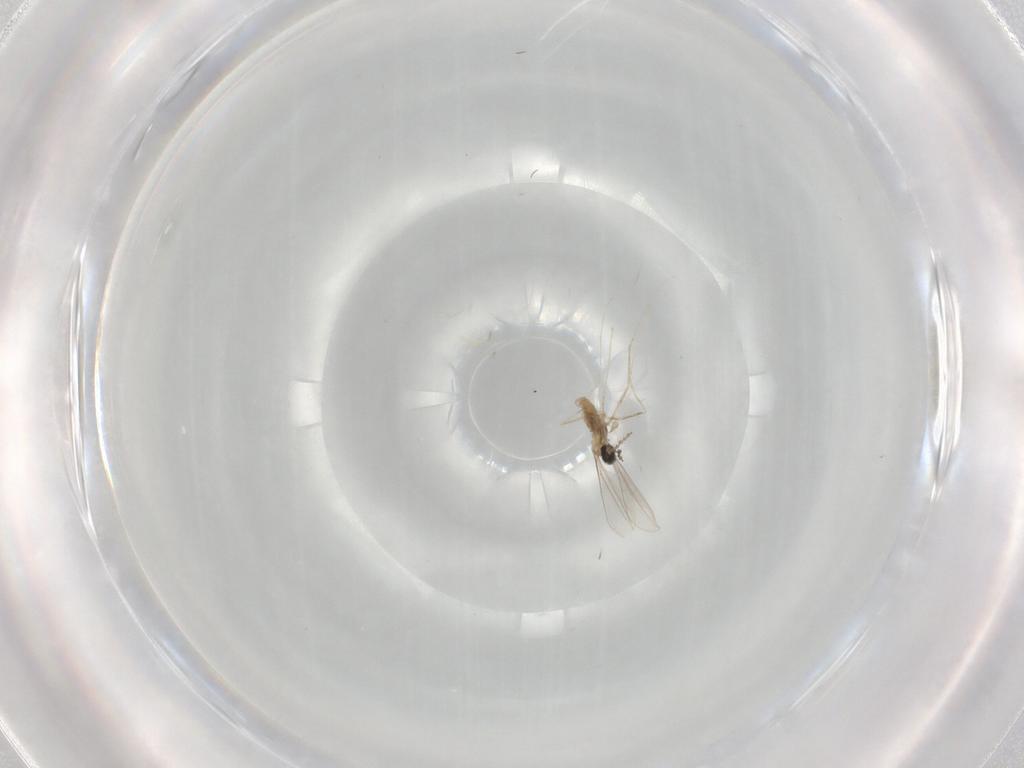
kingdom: Animalia
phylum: Arthropoda
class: Insecta
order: Diptera
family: Cecidomyiidae
